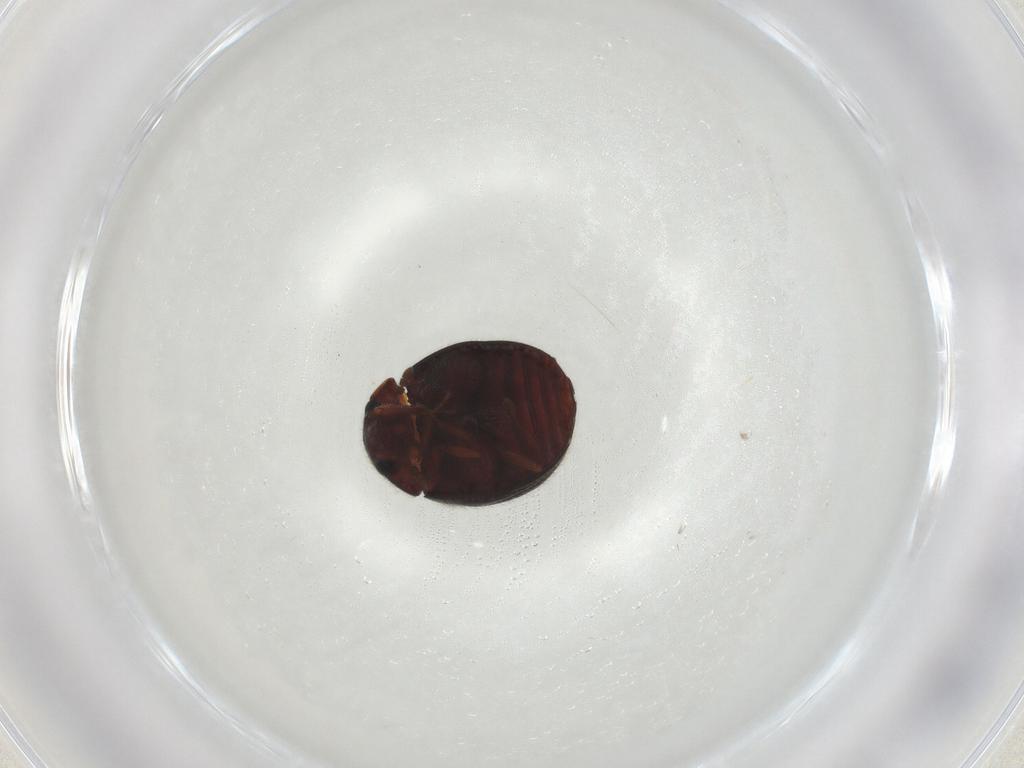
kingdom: Animalia
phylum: Arthropoda
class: Insecta
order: Coleoptera
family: Sphindidae
